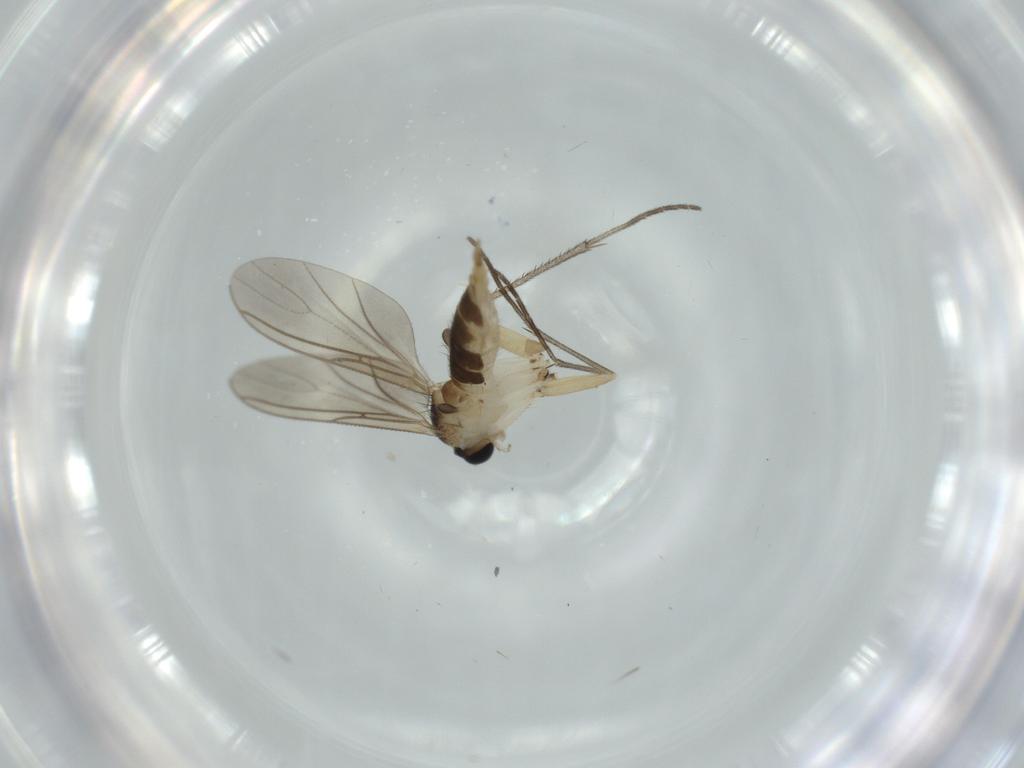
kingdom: Animalia
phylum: Arthropoda
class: Insecta
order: Diptera
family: Sciaridae
